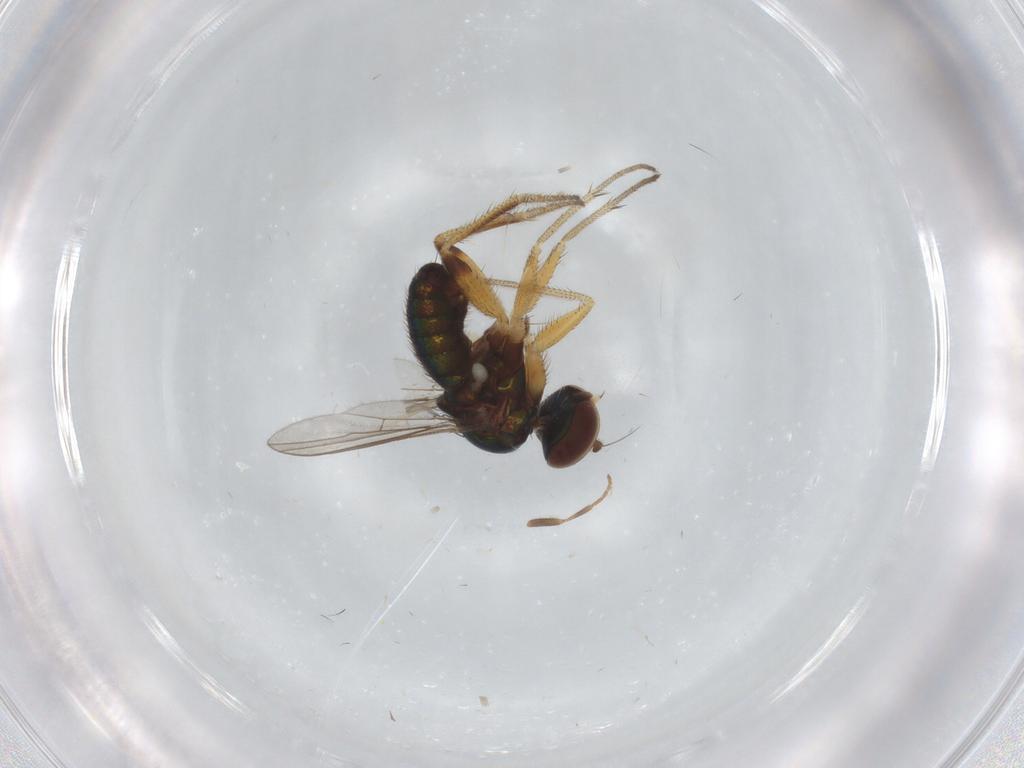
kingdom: Animalia
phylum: Arthropoda
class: Insecta
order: Diptera
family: Sciaridae
